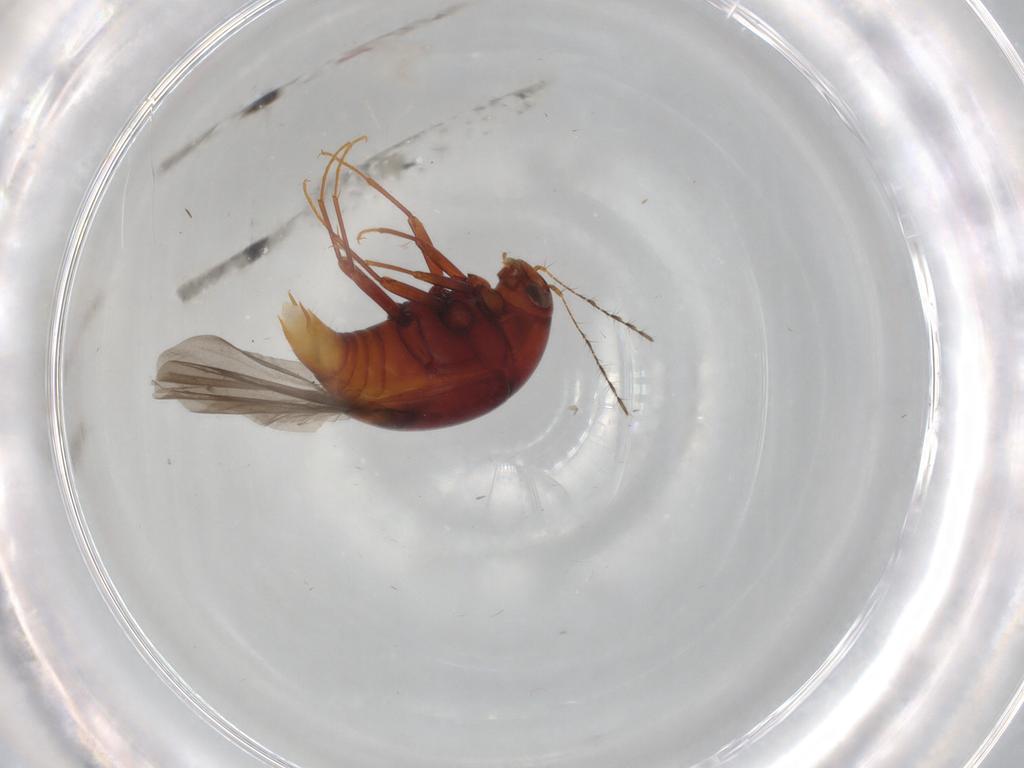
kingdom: Animalia
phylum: Arthropoda
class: Insecta
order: Coleoptera
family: Staphylinidae
